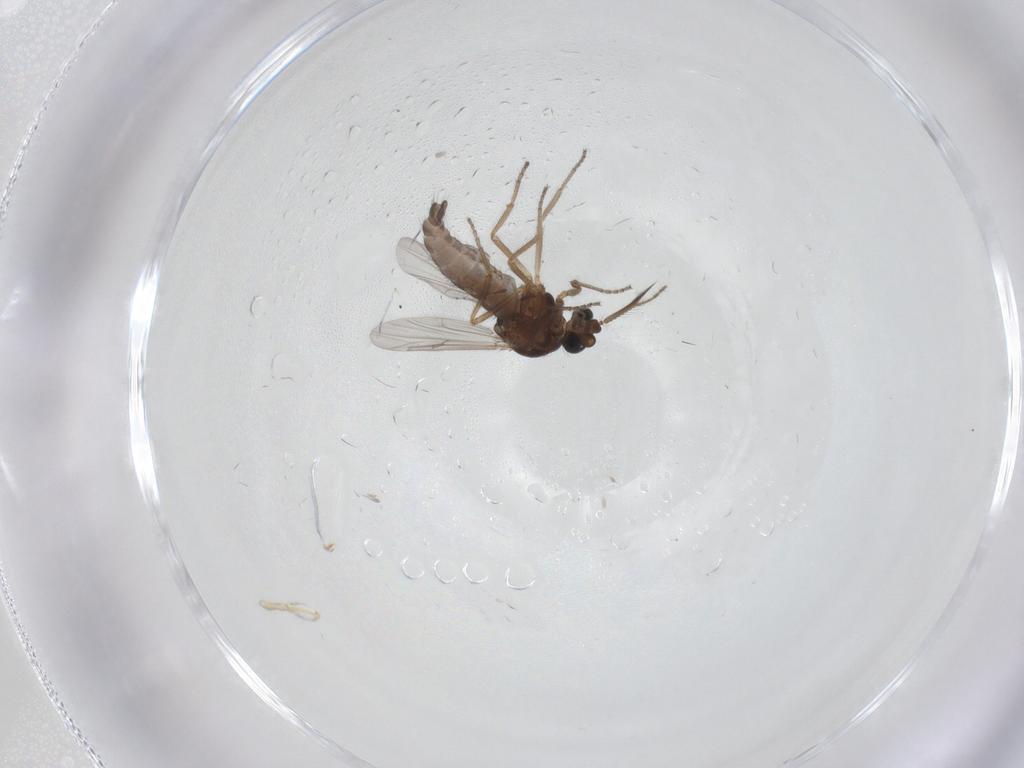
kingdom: Animalia
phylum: Arthropoda
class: Insecta
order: Diptera
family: Ceratopogonidae
